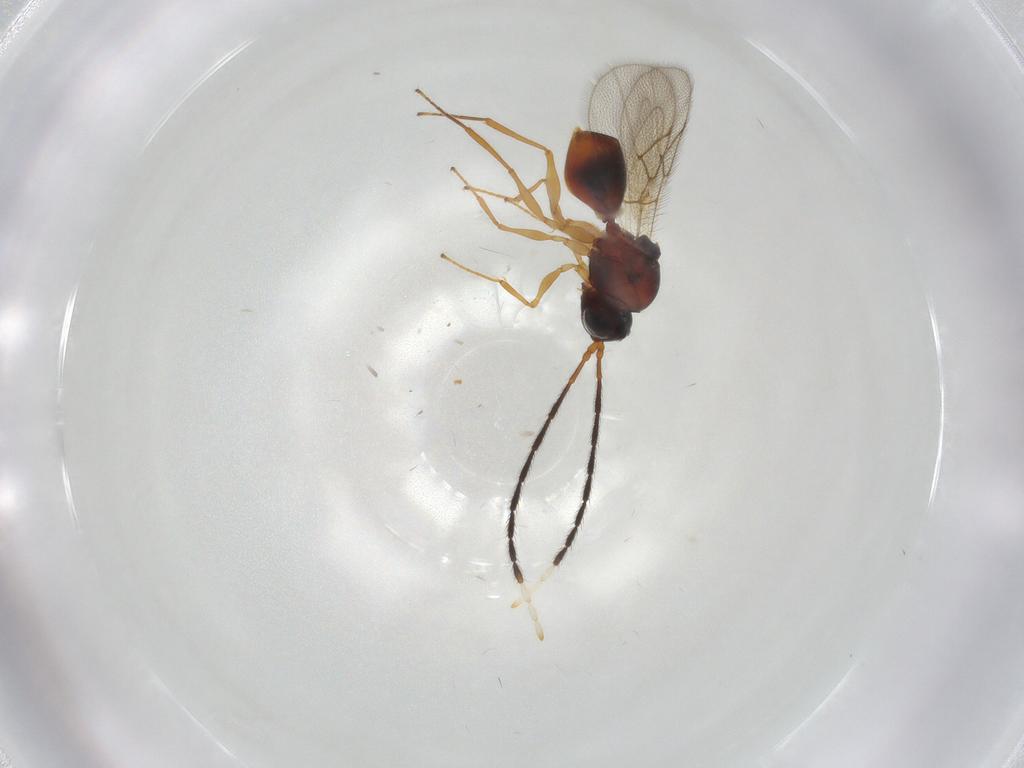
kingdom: Animalia
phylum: Arthropoda
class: Insecta
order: Hymenoptera
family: Figitidae
